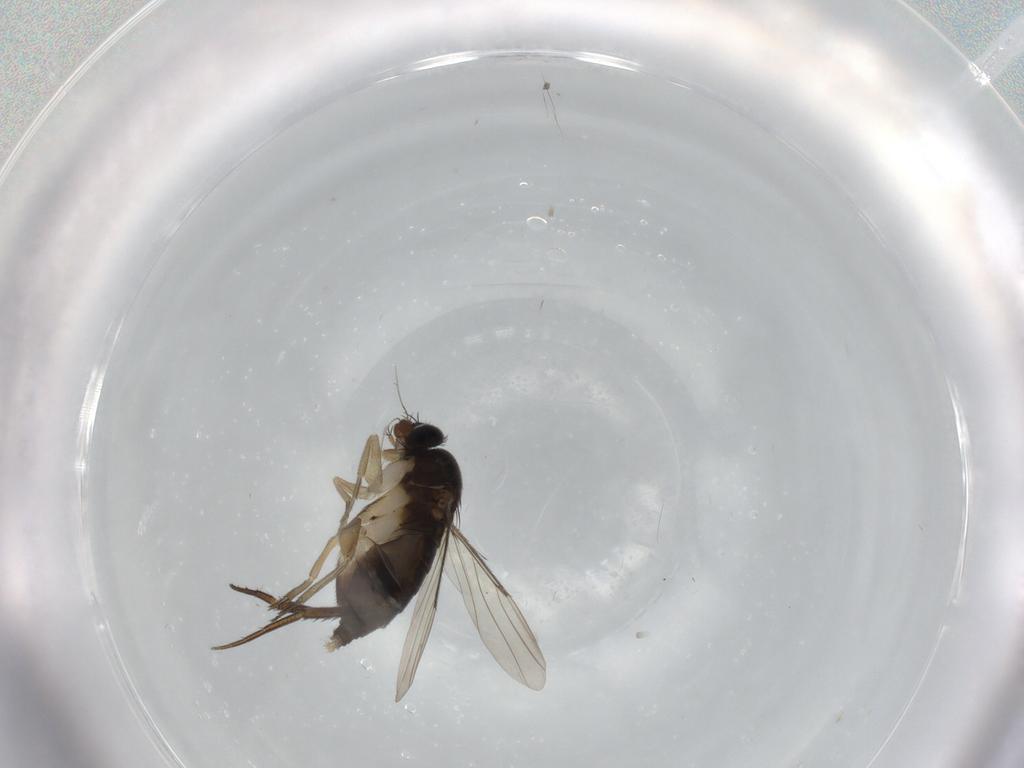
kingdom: Animalia
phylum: Arthropoda
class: Insecta
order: Diptera
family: Phoridae
